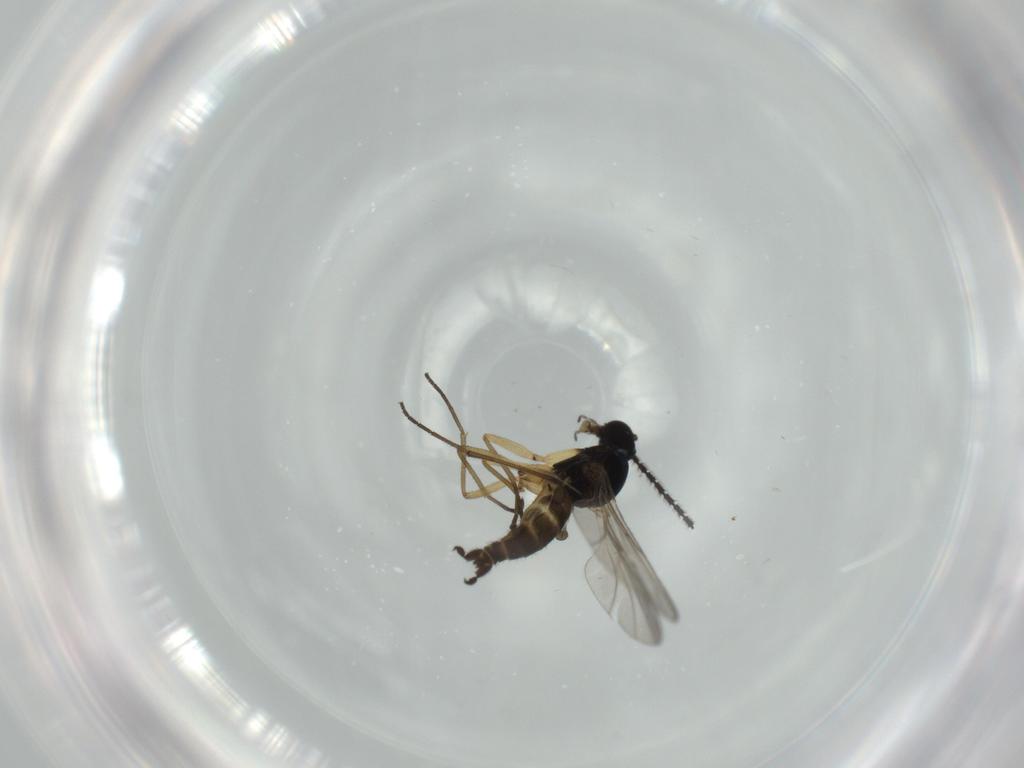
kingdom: Animalia
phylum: Arthropoda
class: Insecta
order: Diptera
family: Sciaridae
